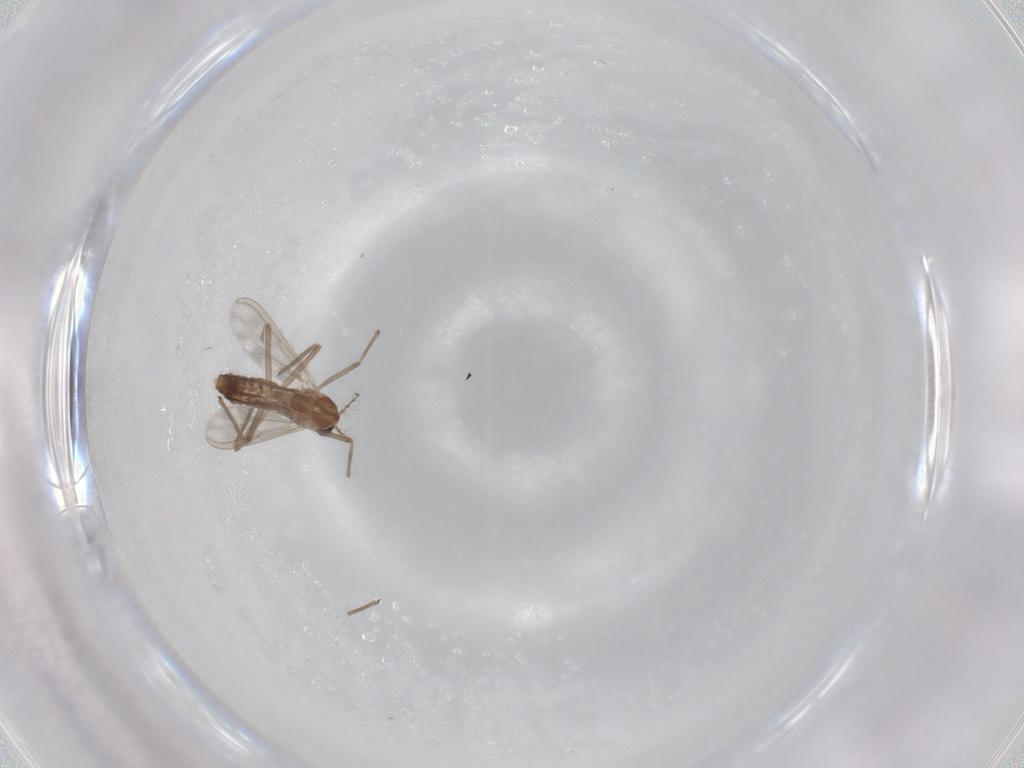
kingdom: Animalia
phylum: Arthropoda
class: Insecta
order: Diptera
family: Chironomidae
